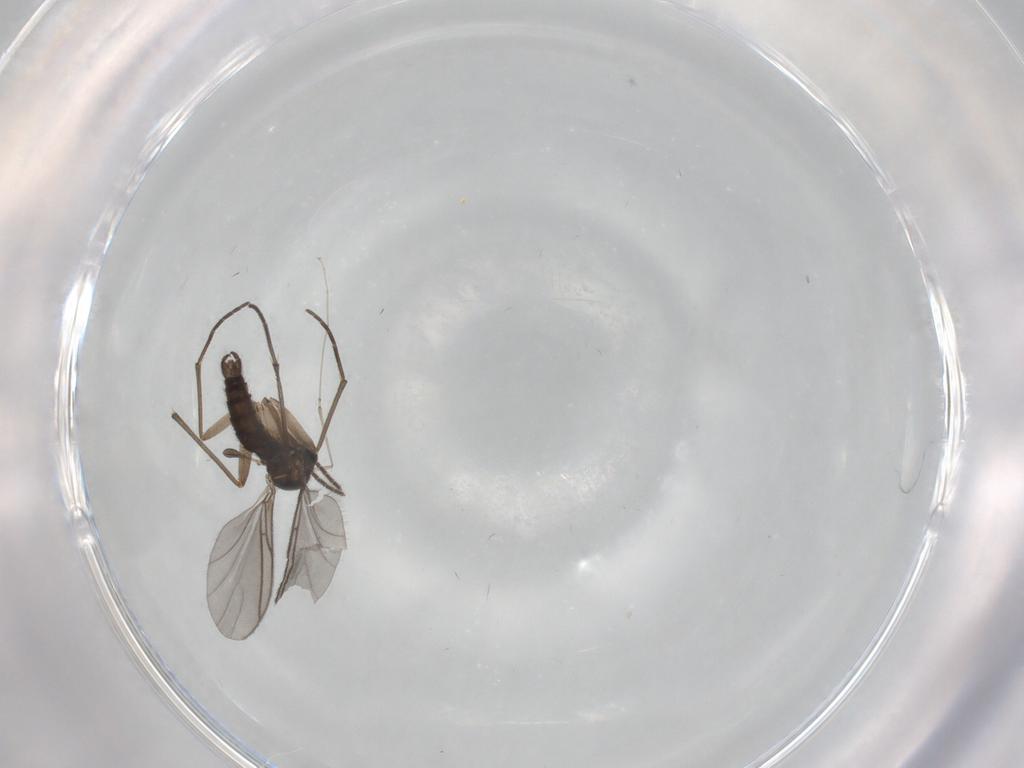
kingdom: Animalia
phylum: Arthropoda
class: Insecta
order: Diptera
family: Sciaridae
